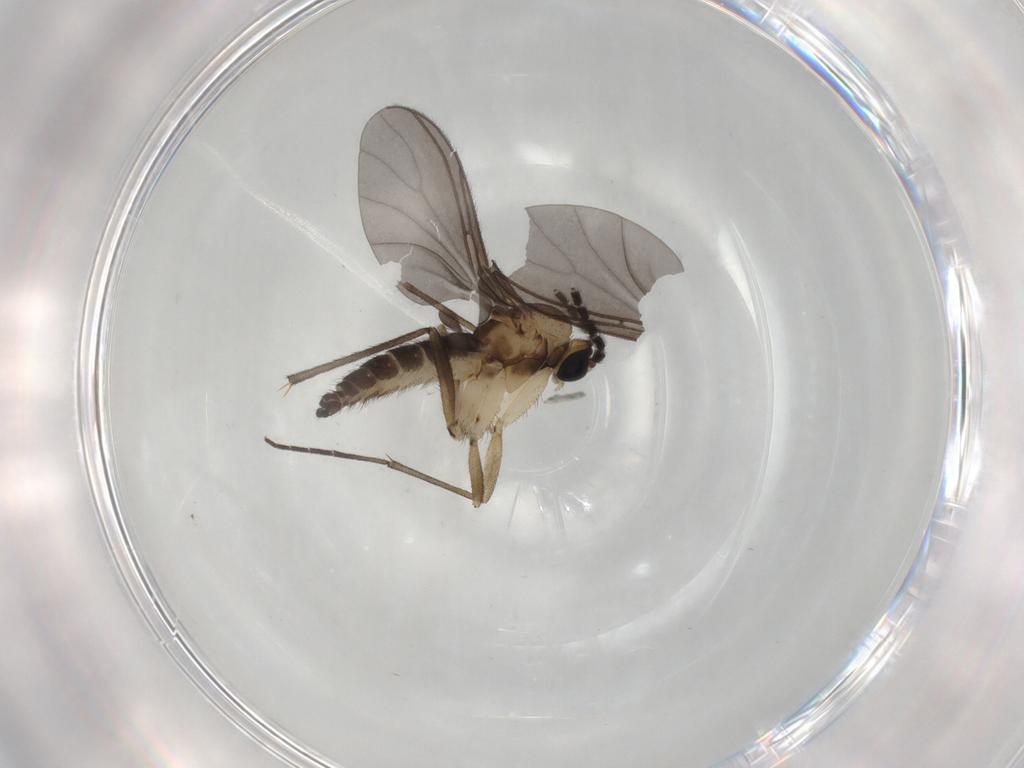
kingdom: Animalia
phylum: Arthropoda
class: Insecta
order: Diptera
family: Sciaridae
